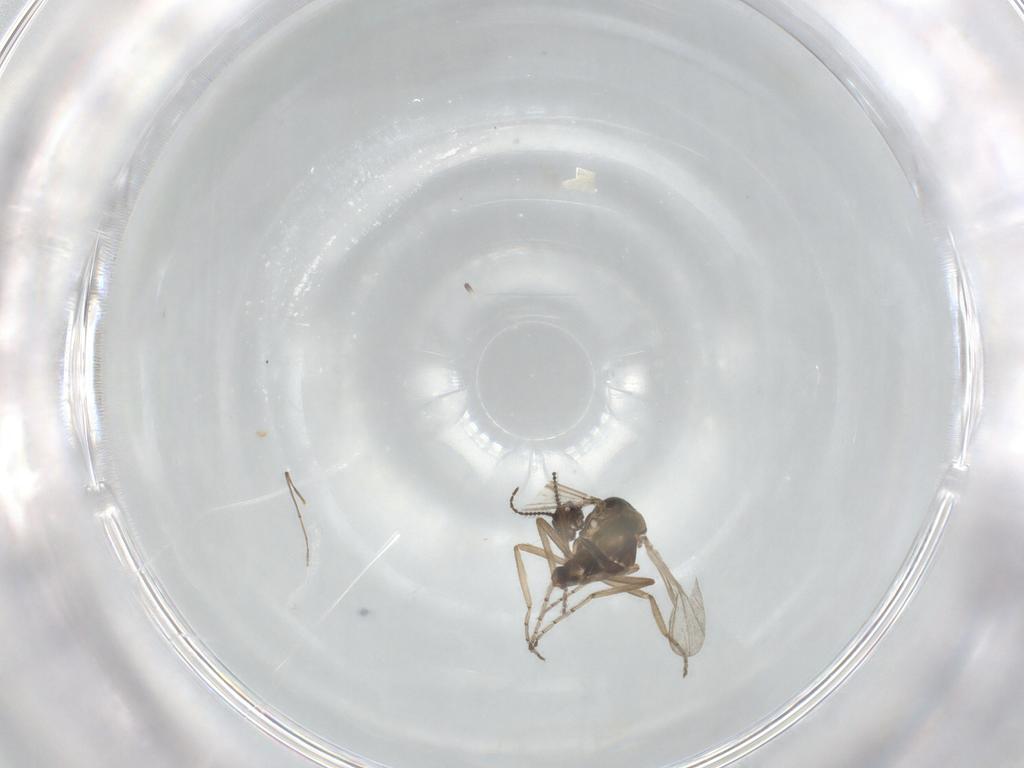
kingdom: Animalia
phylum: Arthropoda
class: Insecta
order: Diptera
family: Ceratopogonidae
